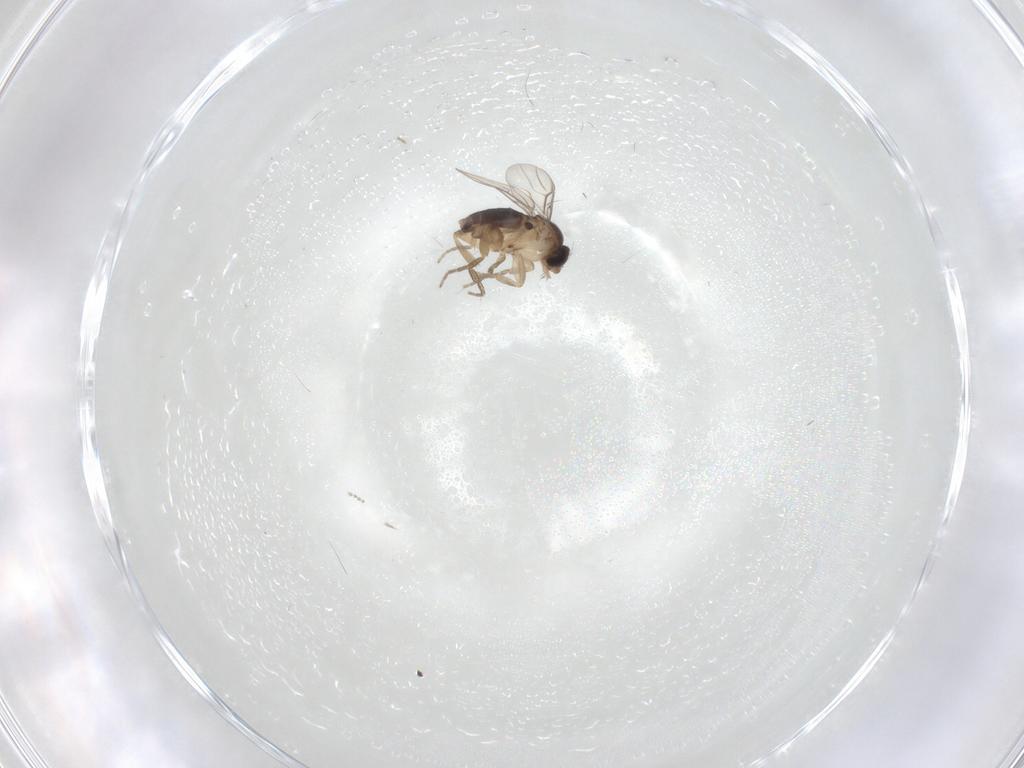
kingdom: Animalia
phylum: Arthropoda
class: Insecta
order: Diptera
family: Phoridae
